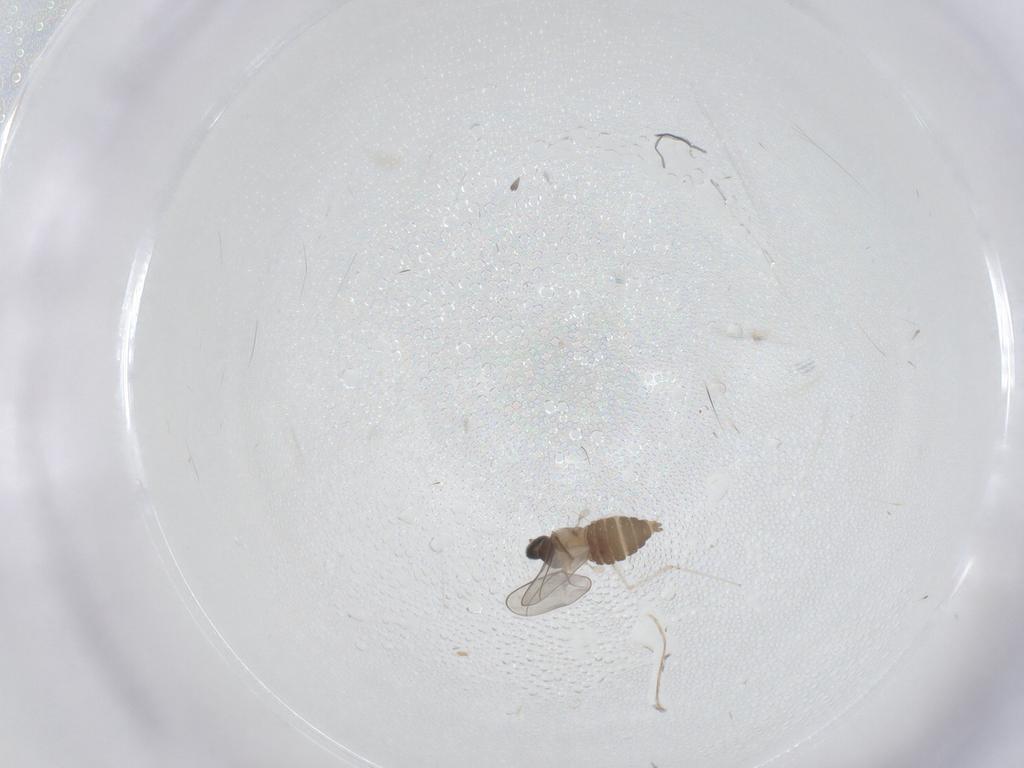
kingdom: Animalia
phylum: Arthropoda
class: Insecta
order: Diptera
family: Cecidomyiidae
